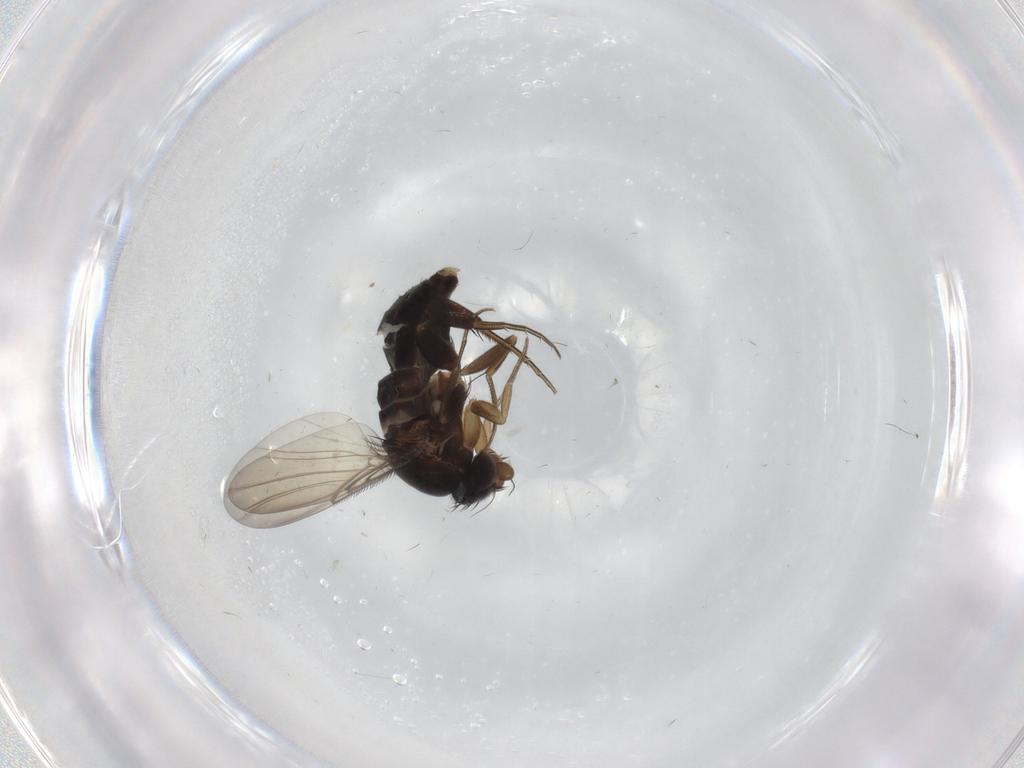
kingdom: Animalia
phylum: Arthropoda
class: Insecta
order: Diptera
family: Phoridae
